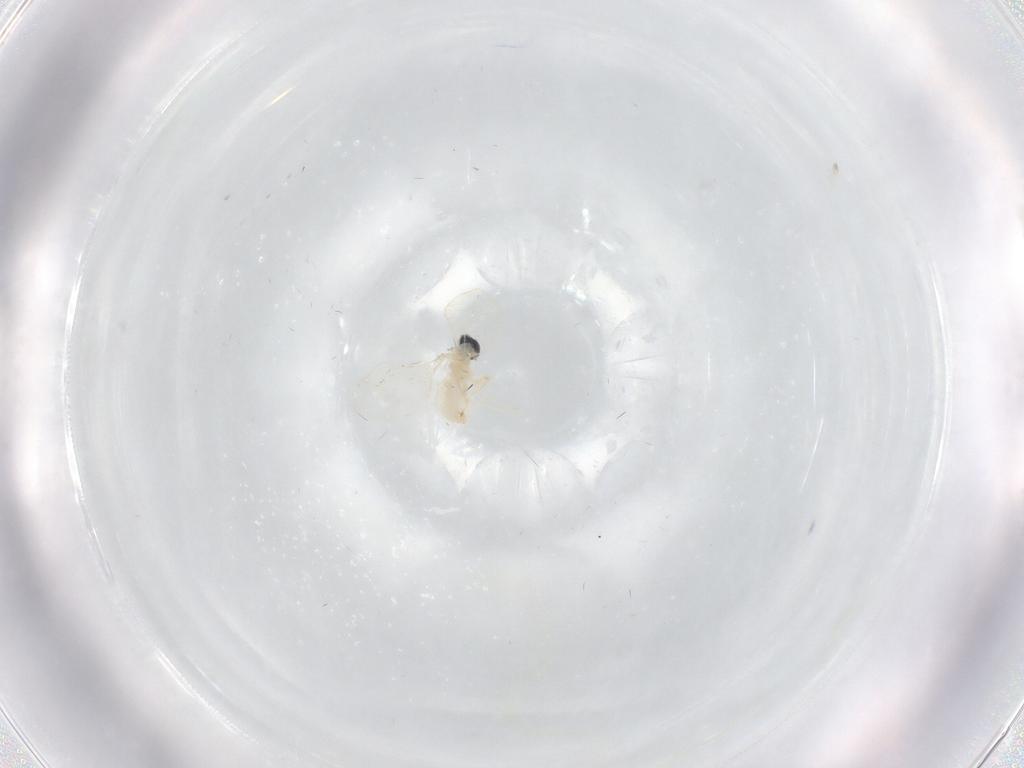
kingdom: Animalia
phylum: Arthropoda
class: Insecta
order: Diptera
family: Cecidomyiidae
